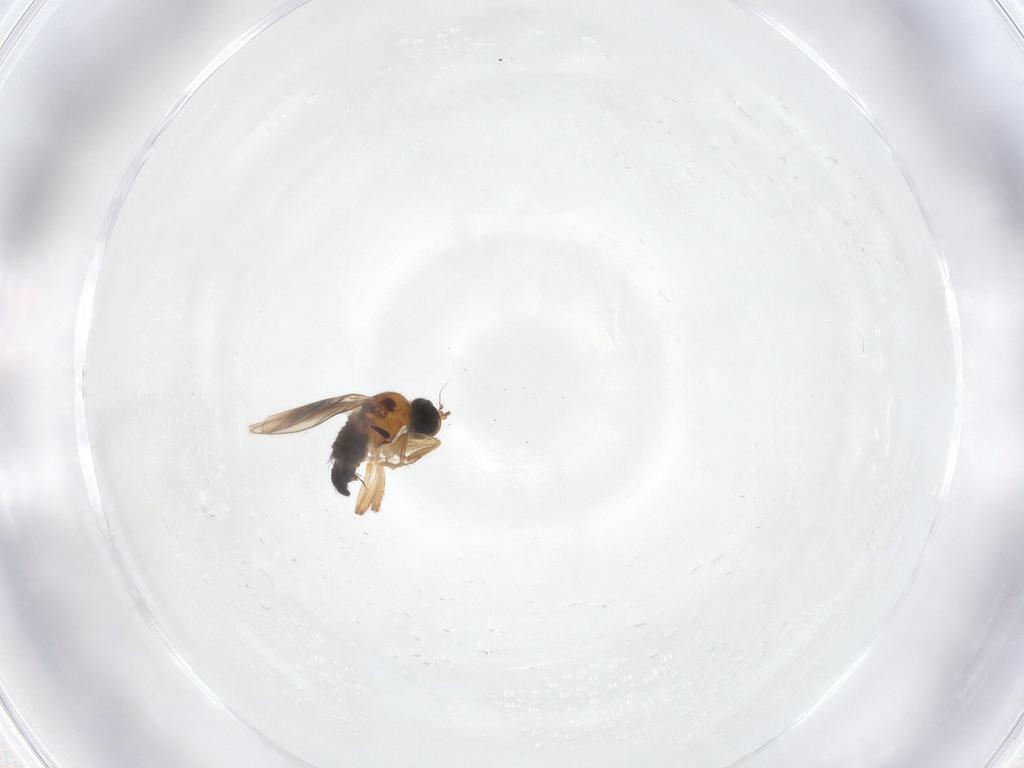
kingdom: Animalia
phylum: Arthropoda
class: Insecta
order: Diptera
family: Hybotidae
